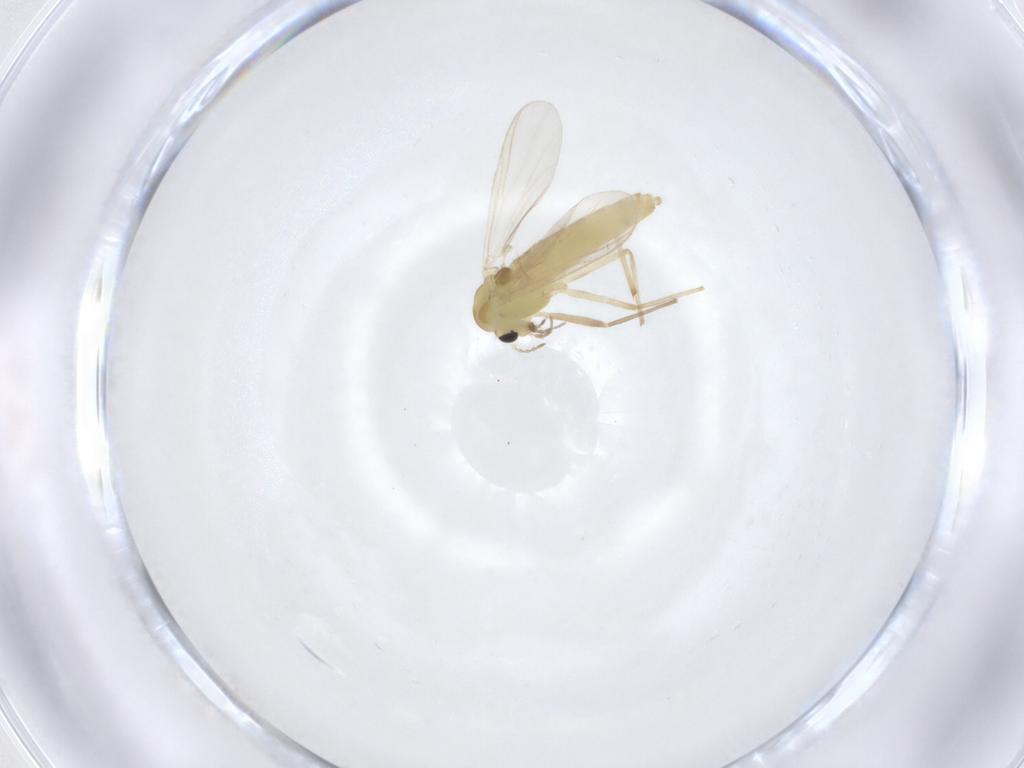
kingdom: Animalia
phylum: Arthropoda
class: Insecta
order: Diptera
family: Chironomidae
